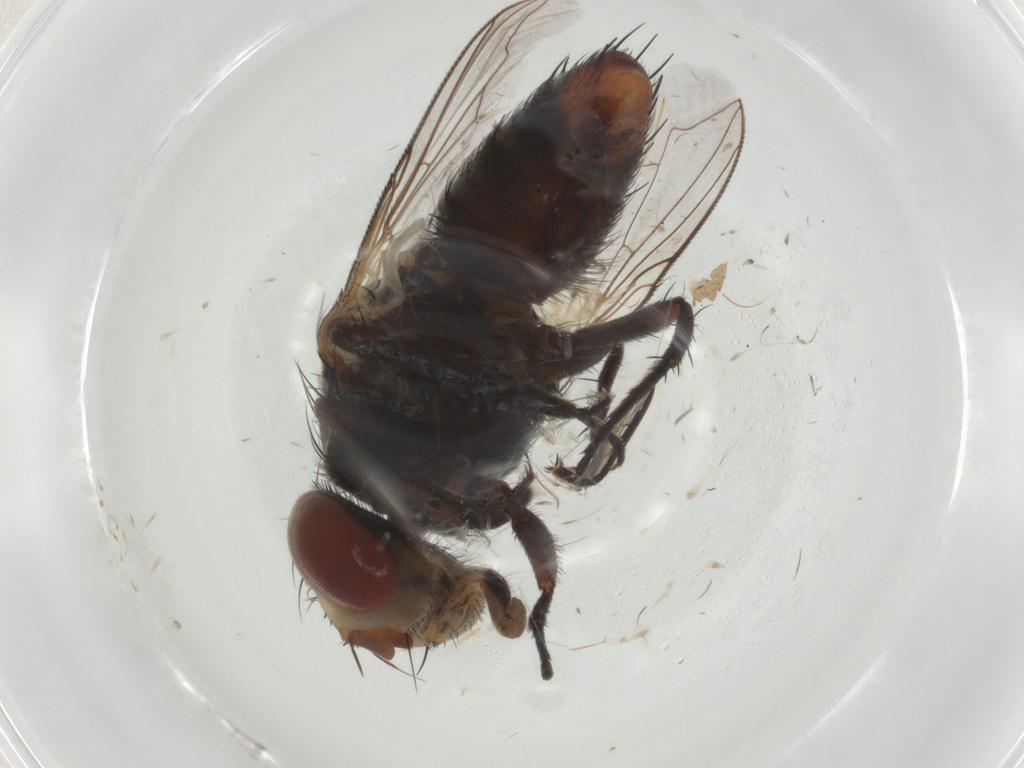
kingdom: Animalia
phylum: Arthropoda
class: Insecta
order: Diptera
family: Sarcophagidae
